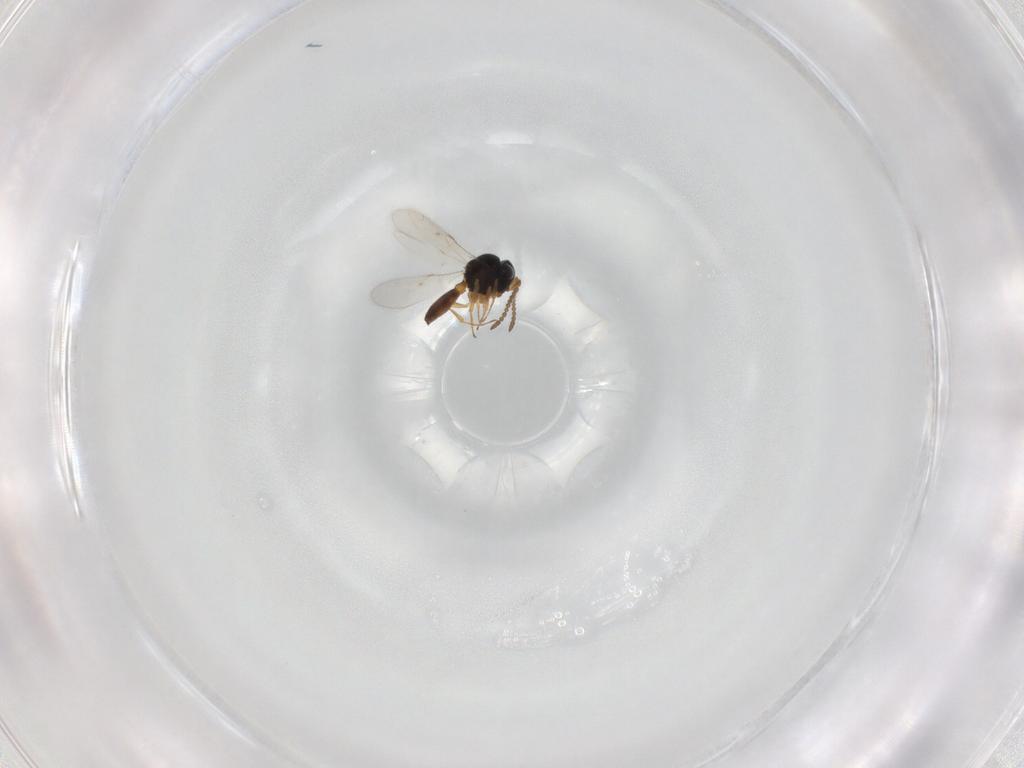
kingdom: Animalia
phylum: Arthropoda
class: Insecta
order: Hymenoptera
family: Scelionidae
